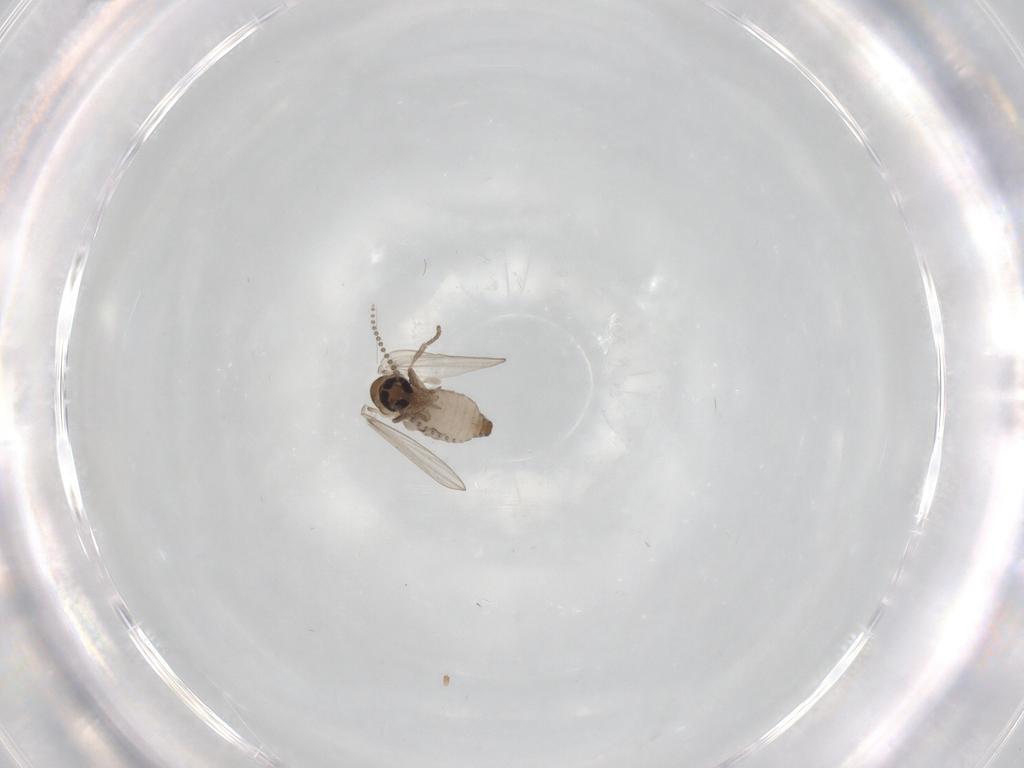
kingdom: Animalia
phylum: Arthropoda
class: Insecta
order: Diptera
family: Psychodidae
